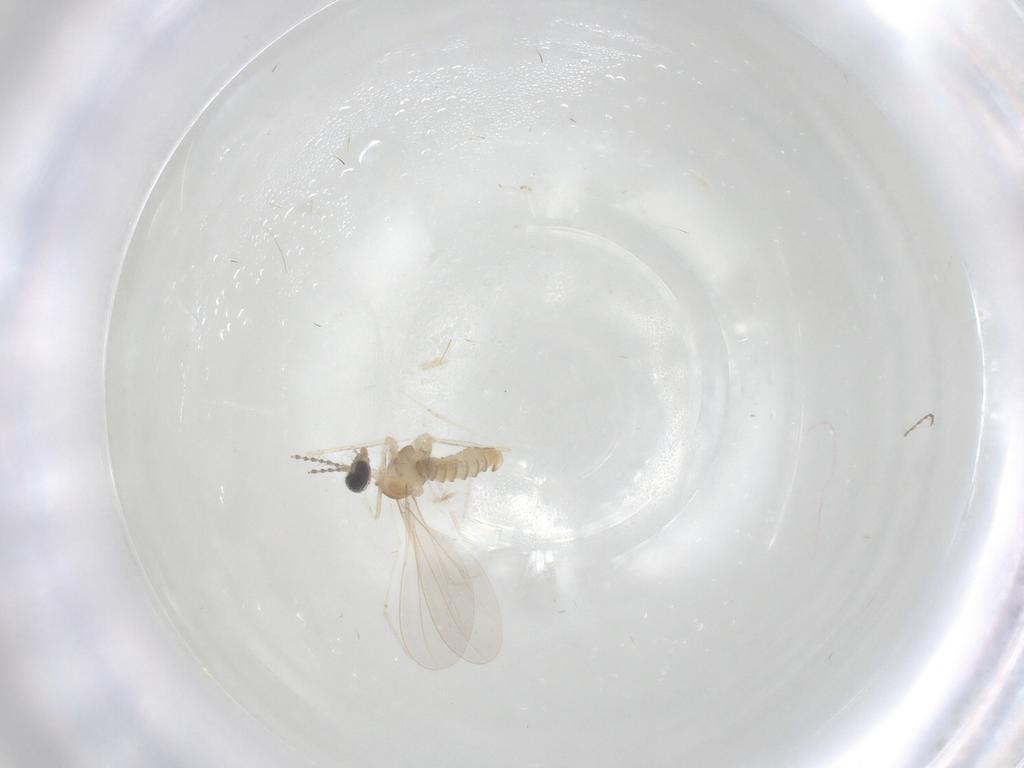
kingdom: Animalia
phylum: Arthropoda
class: Insecta
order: Diptera
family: Cecidomyiidae
